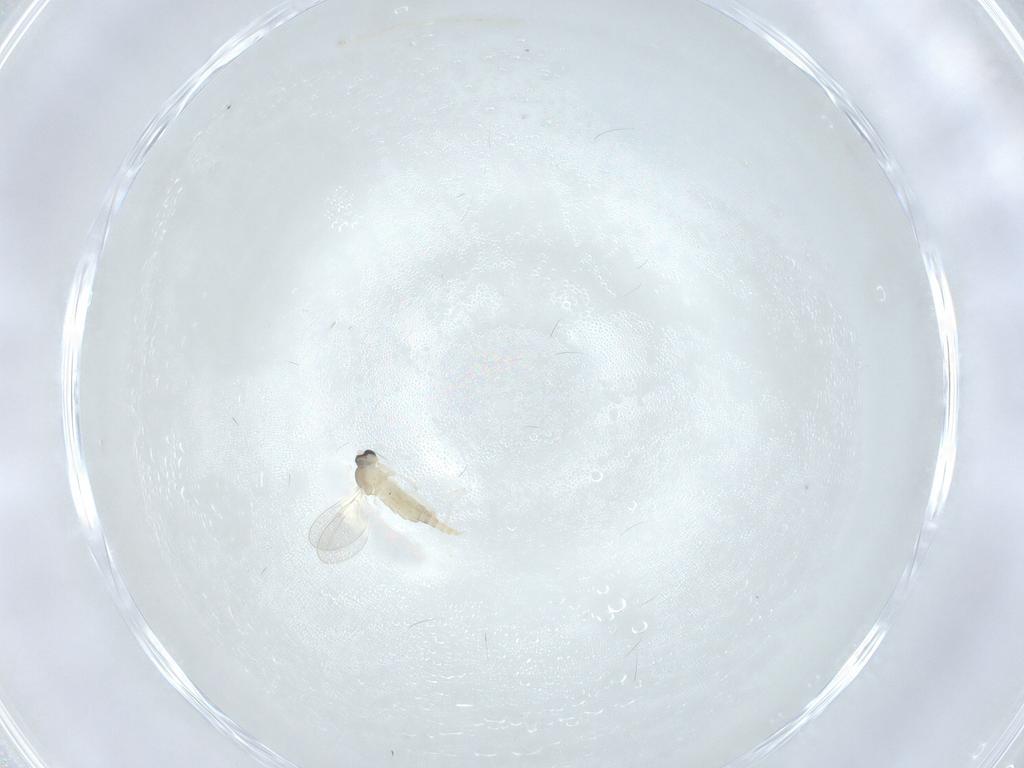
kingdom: Animalia
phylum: Arthropoda
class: Insecta
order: Diptera
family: Cecidomyiidae
